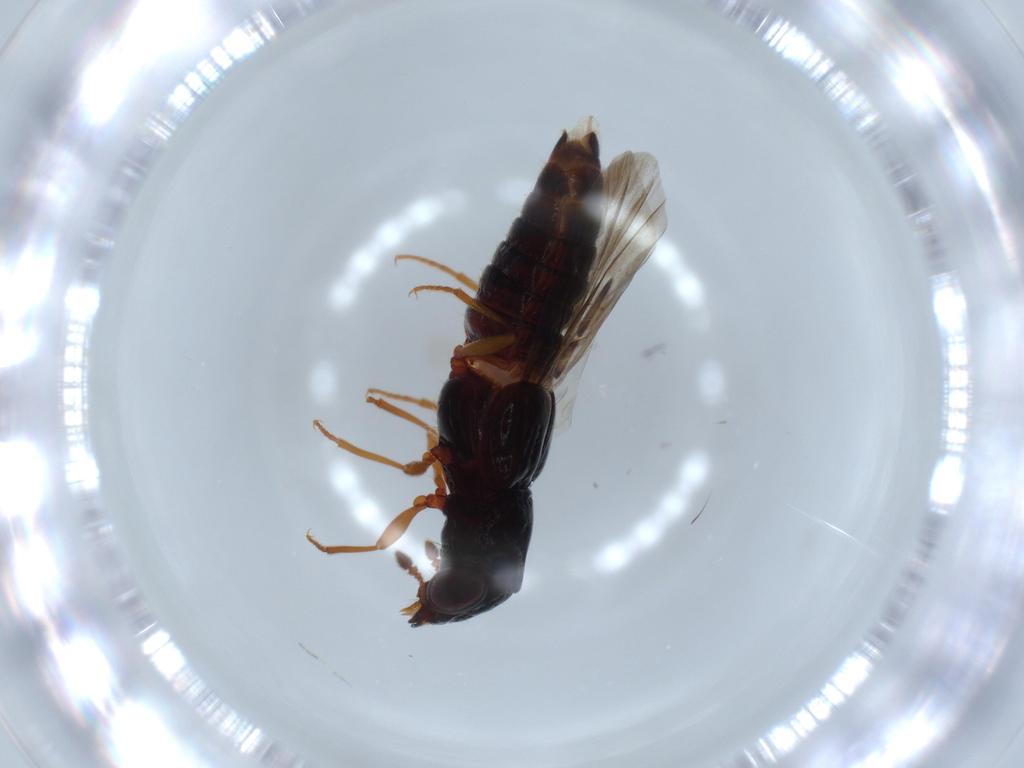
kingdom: Animalia
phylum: Arthropoda
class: Insecta
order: Coleoptera
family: Staphylinidae
